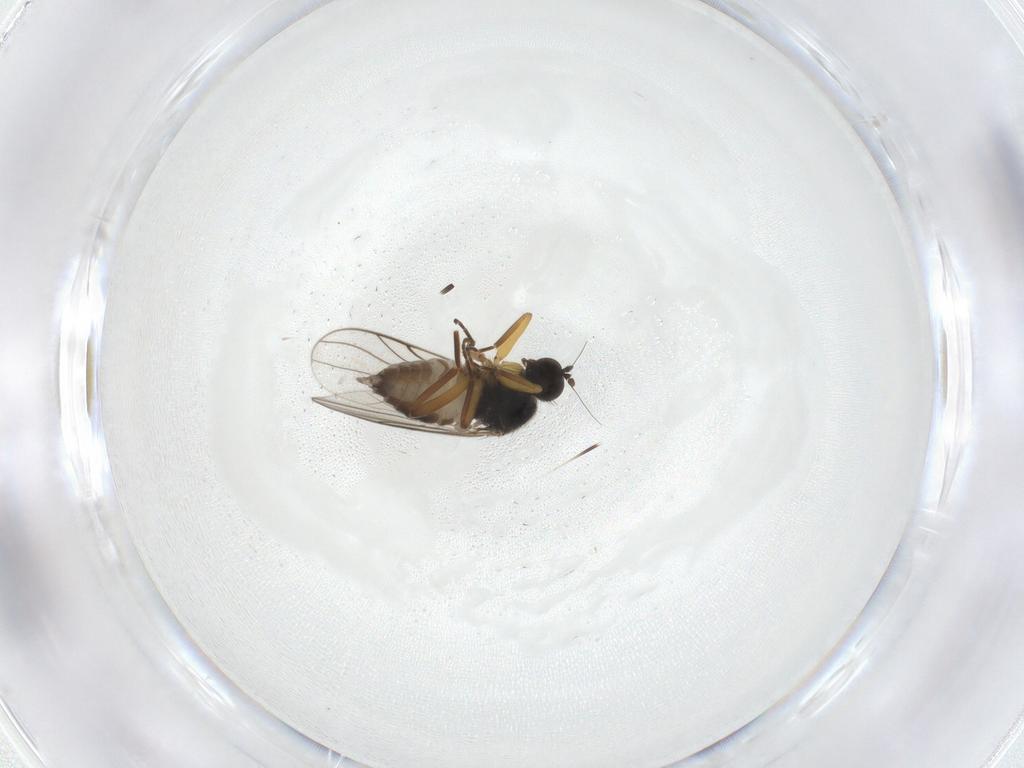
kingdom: Animalia
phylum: Arthropoda
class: Insecta
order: Diptera
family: Hybotidae
